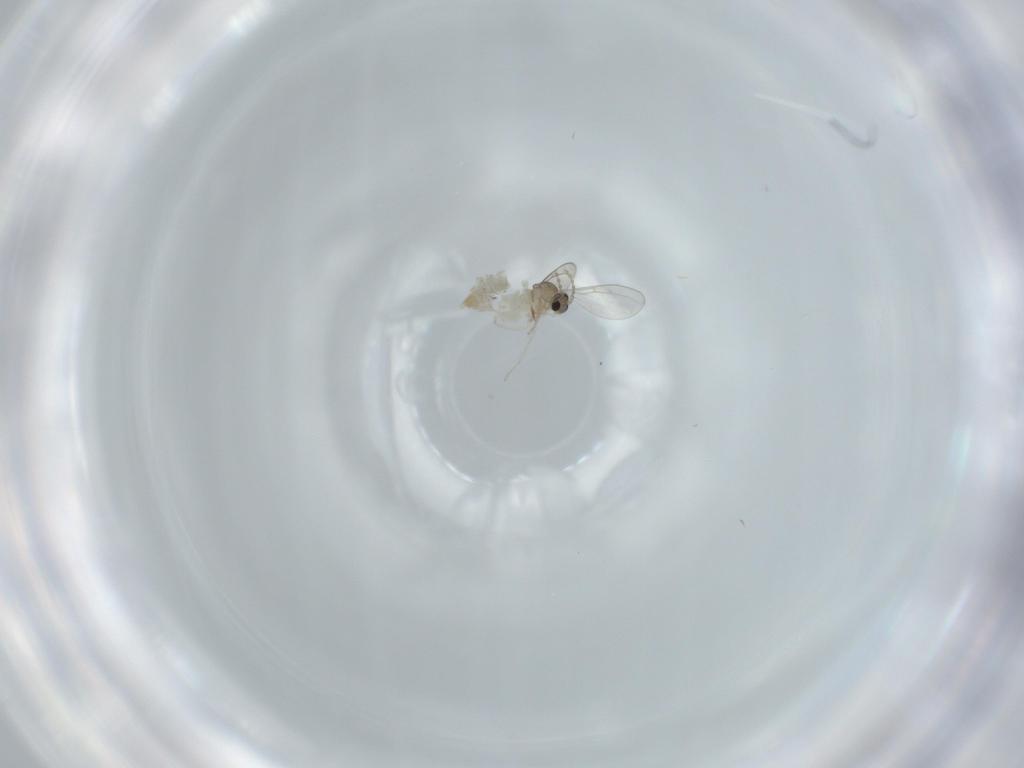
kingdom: Animalia
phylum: Arthropoda
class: Insecta
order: Diptera
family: Cecidomyiidae
